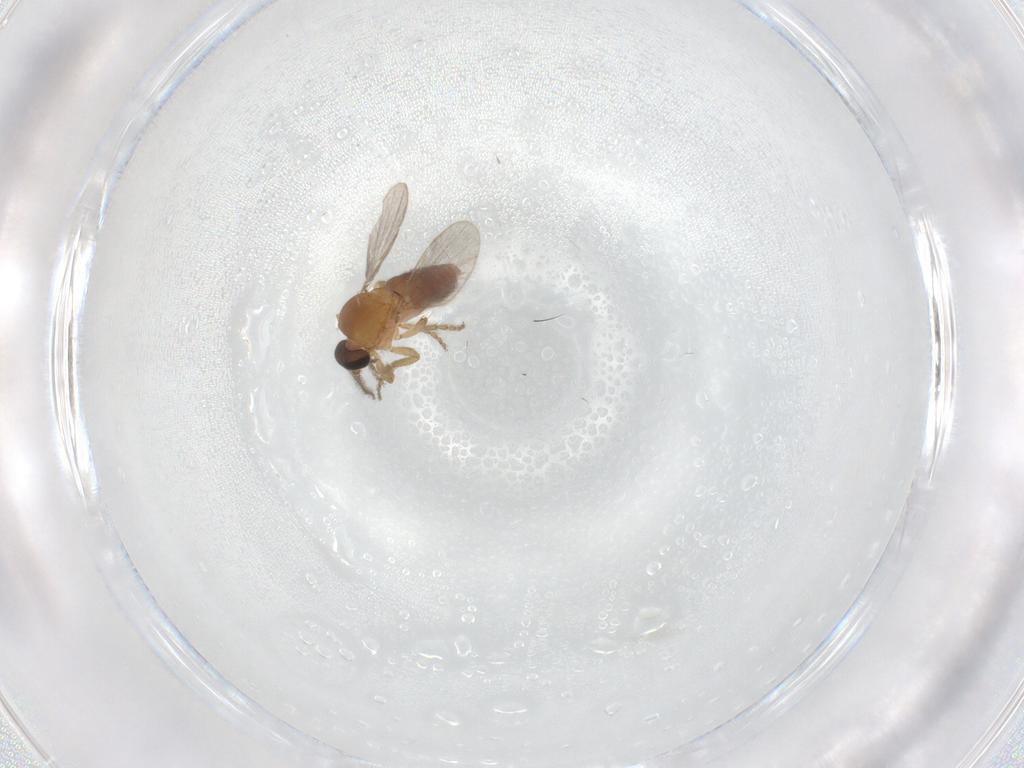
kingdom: Animalia
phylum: Arthropoda
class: Insecta
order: Diptera
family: Ceratopogonidae
